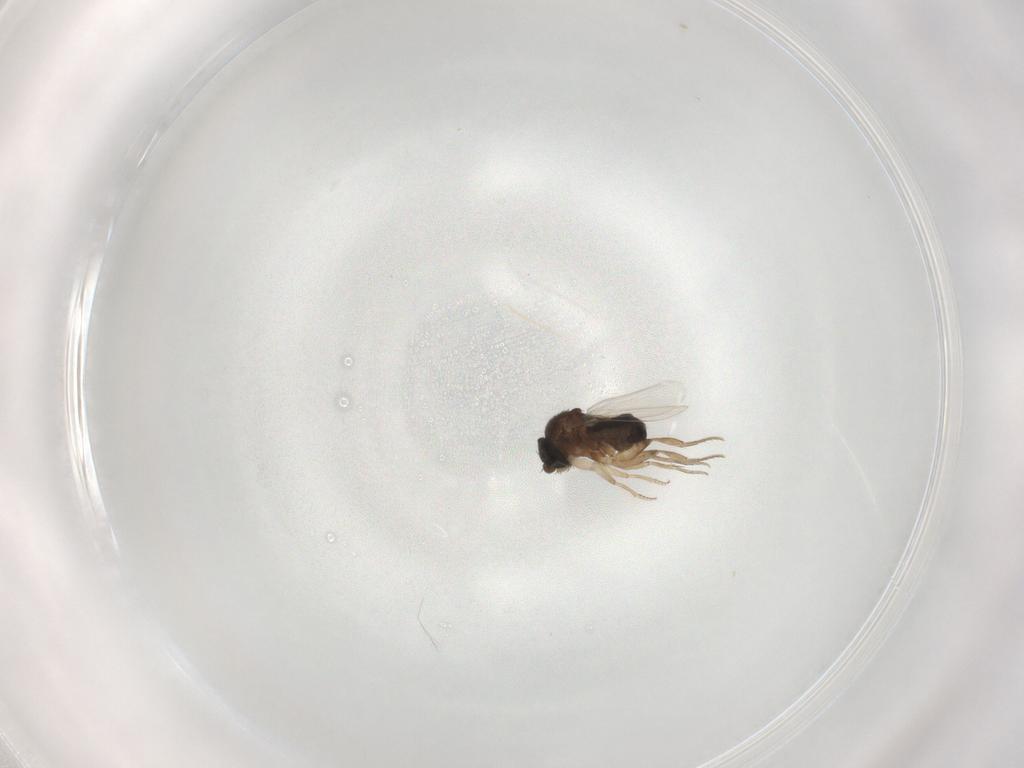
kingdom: Animalia
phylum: Arthropoda
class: Insecta
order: Diptera
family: Phoridae
